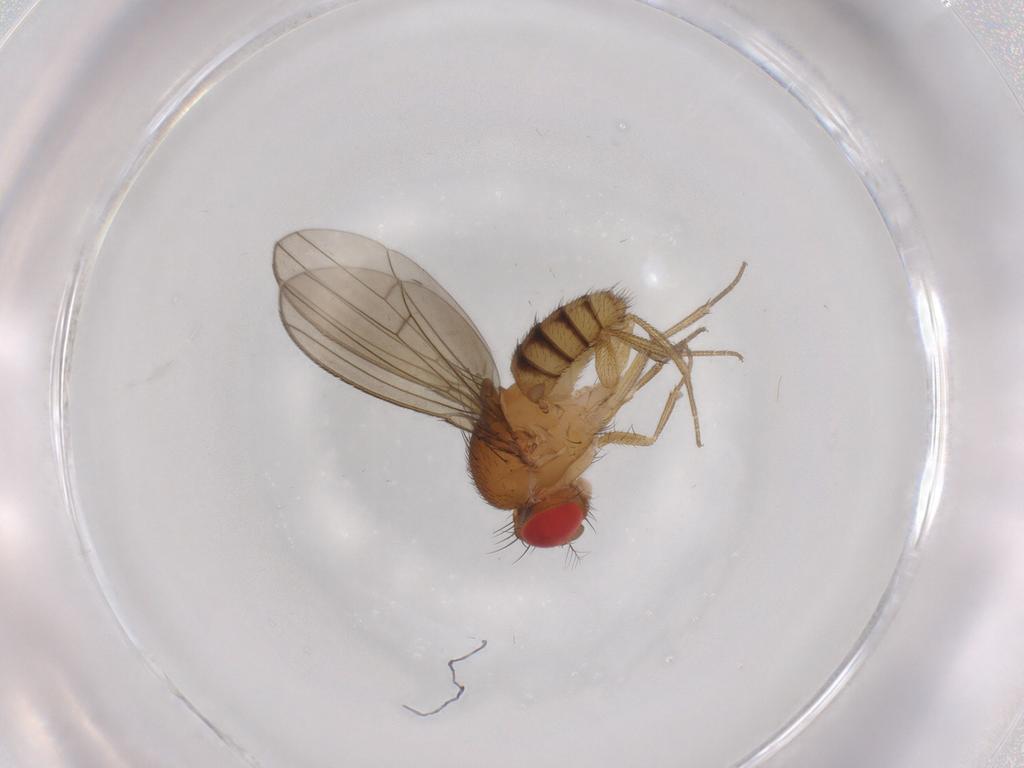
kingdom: Animalia
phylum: Arthropoda
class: Insecta
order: Diptera
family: Drosophilidae
